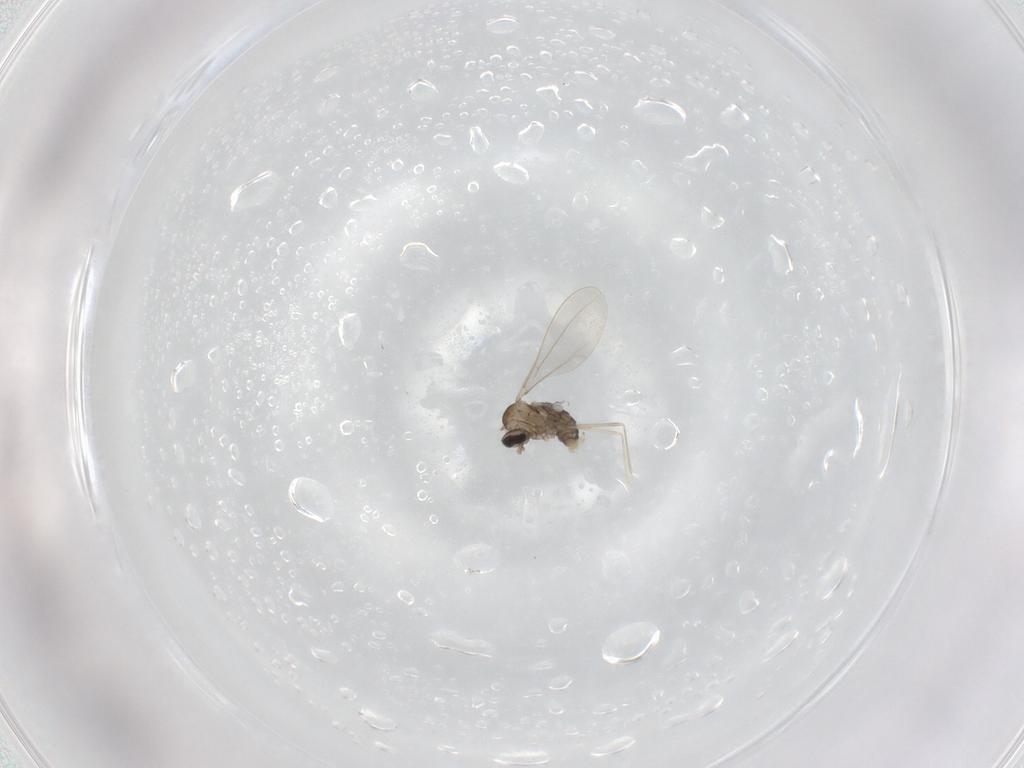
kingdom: Animalia
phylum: Arthropoda
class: Insecta
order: Diptera
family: Cecidomyiidae
